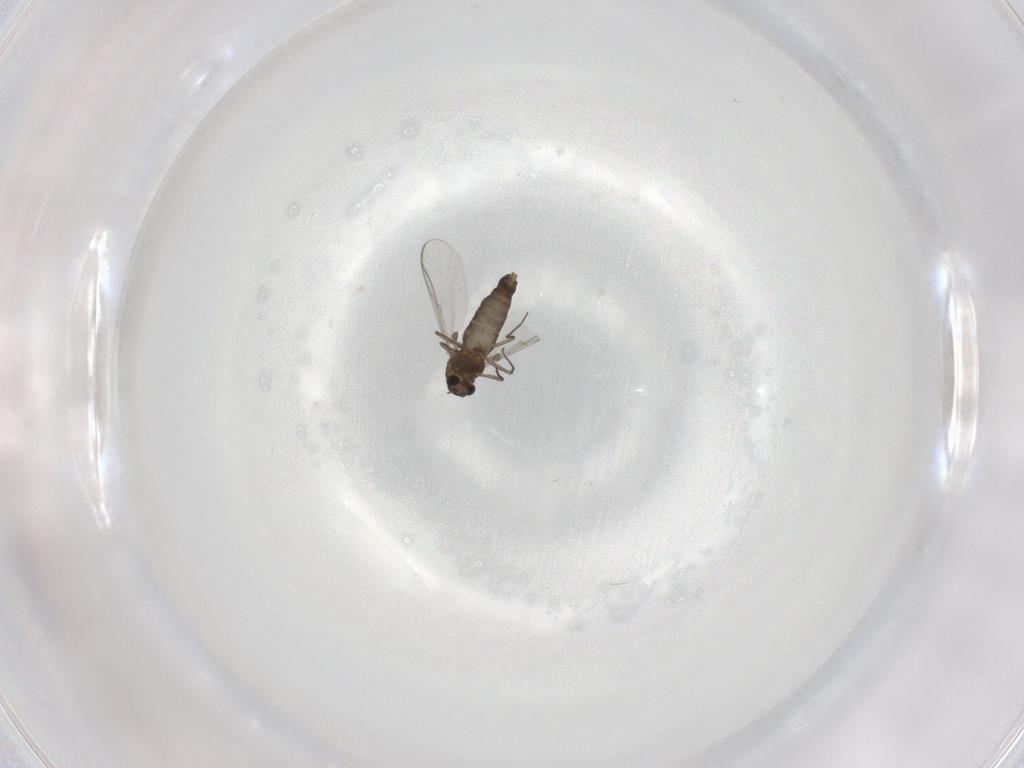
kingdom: Animalia
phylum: Arthropoda
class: Insecta
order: Diptera
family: Chironomidae
